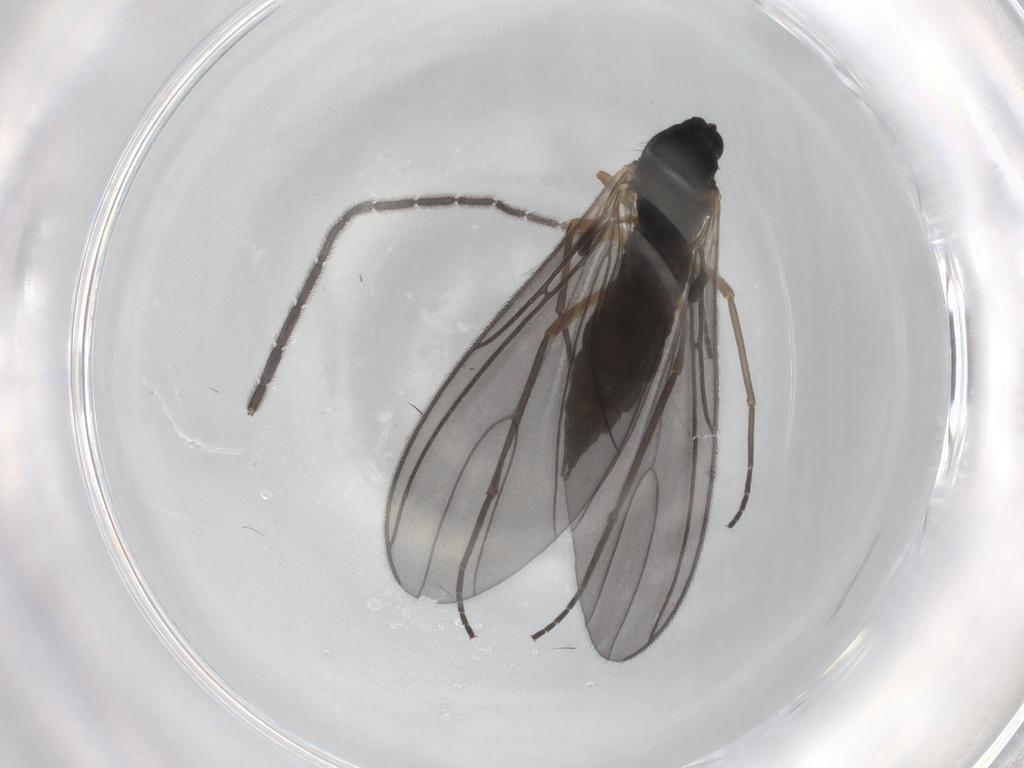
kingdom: Animalia
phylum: Arthropoda
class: Insecta
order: Diptera
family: Sciaridae
